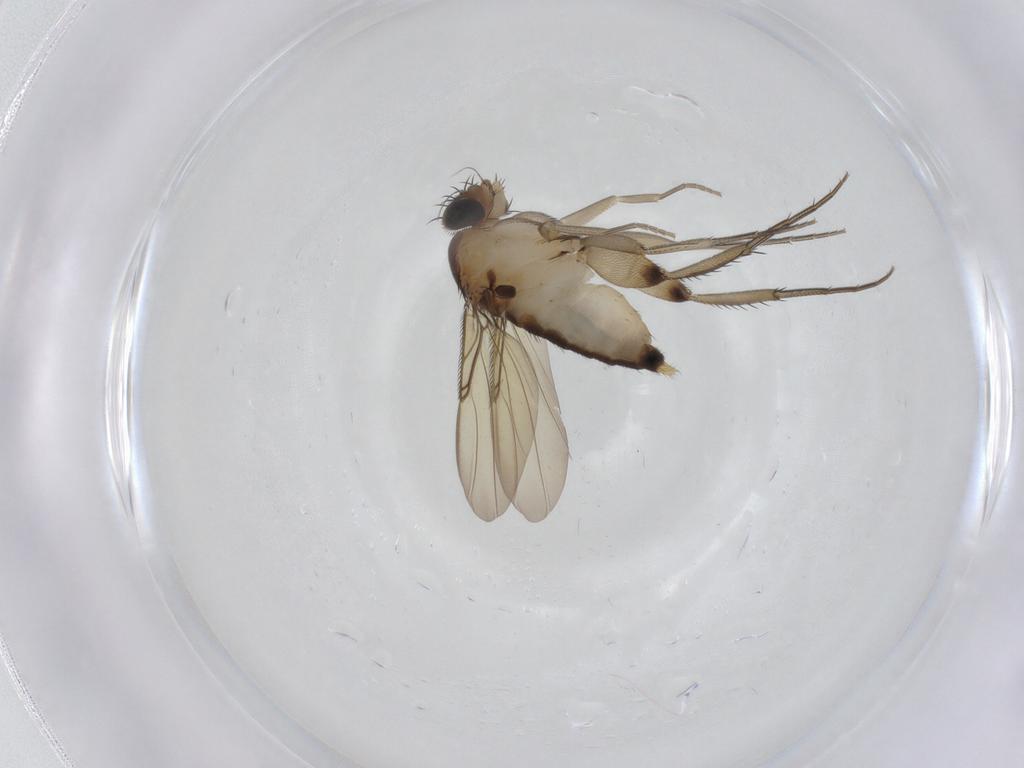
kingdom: Animalia
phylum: Arthropoda
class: Insecta
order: Diptera
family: Phoridae
